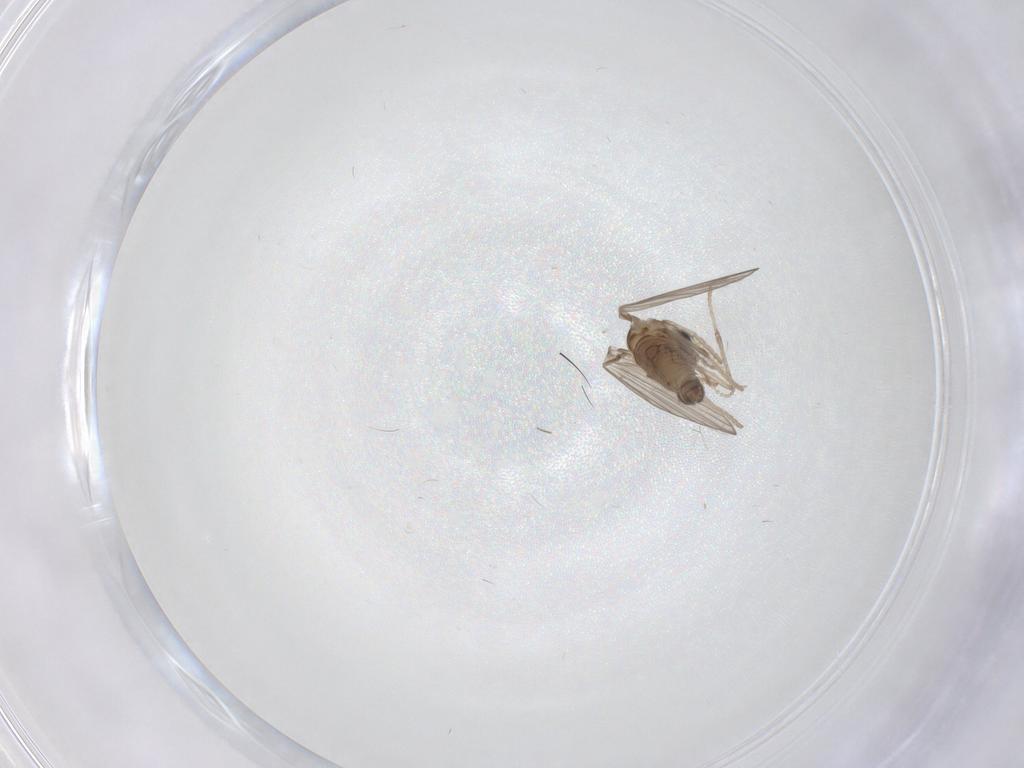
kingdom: Animalia
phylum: Arthropoda
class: Insecta
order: Diptera
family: Psychodidae
